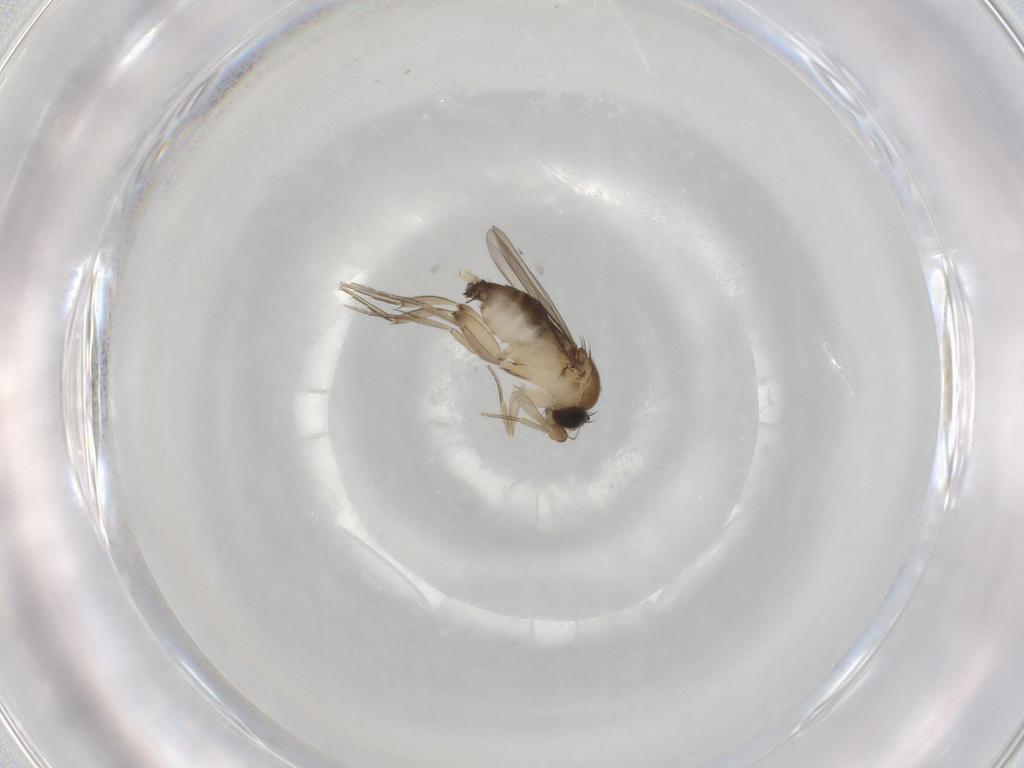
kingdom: Animalia
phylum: Arthropoda
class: Insecta
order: Diptera
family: Phoridae
